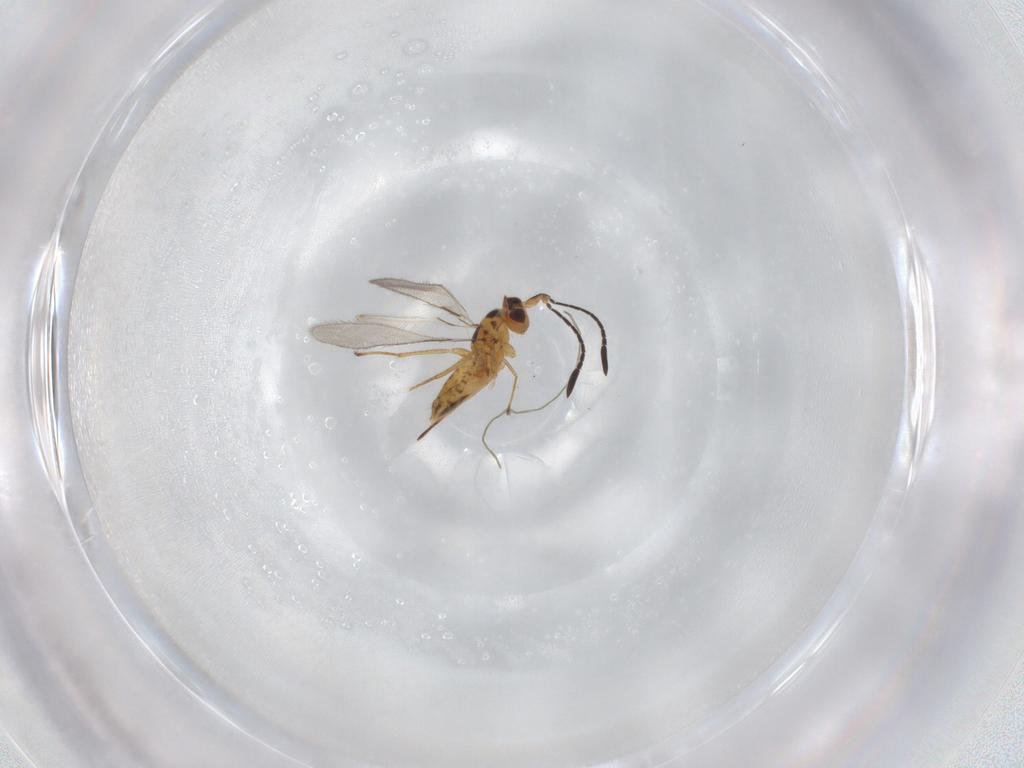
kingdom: Animalia
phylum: Arthropoda
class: Insecta
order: Hymenoptera
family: Mymaridae
